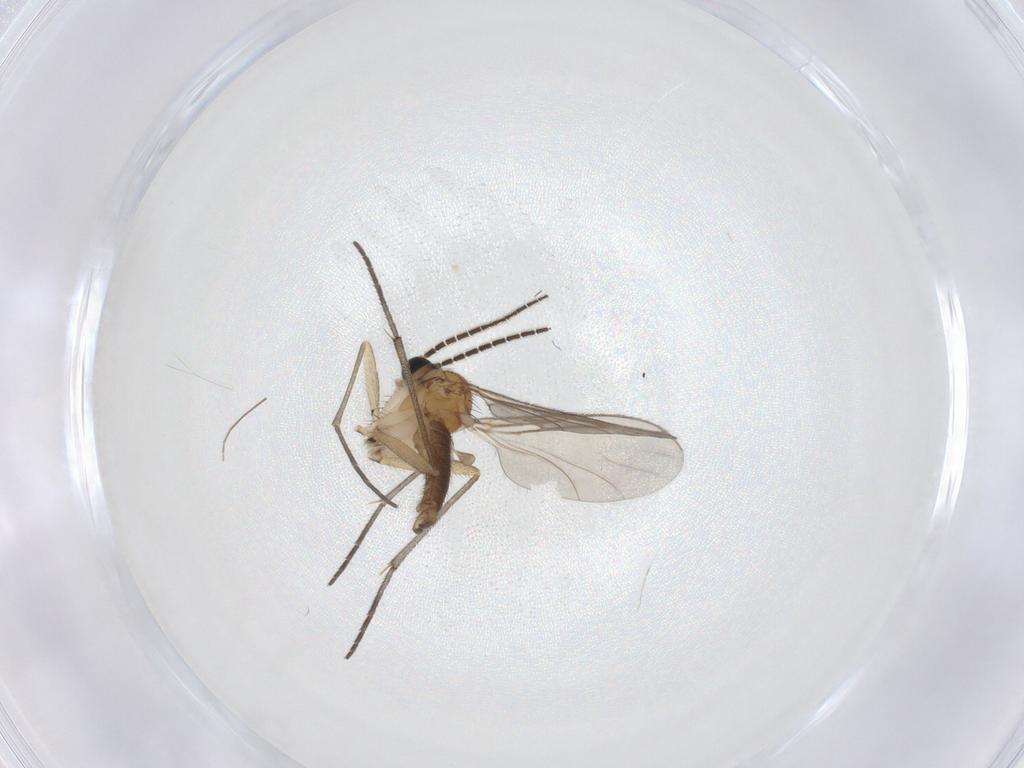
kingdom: Animalia
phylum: Arthropoda
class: Insecta
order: Diptera
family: Sciaridae
